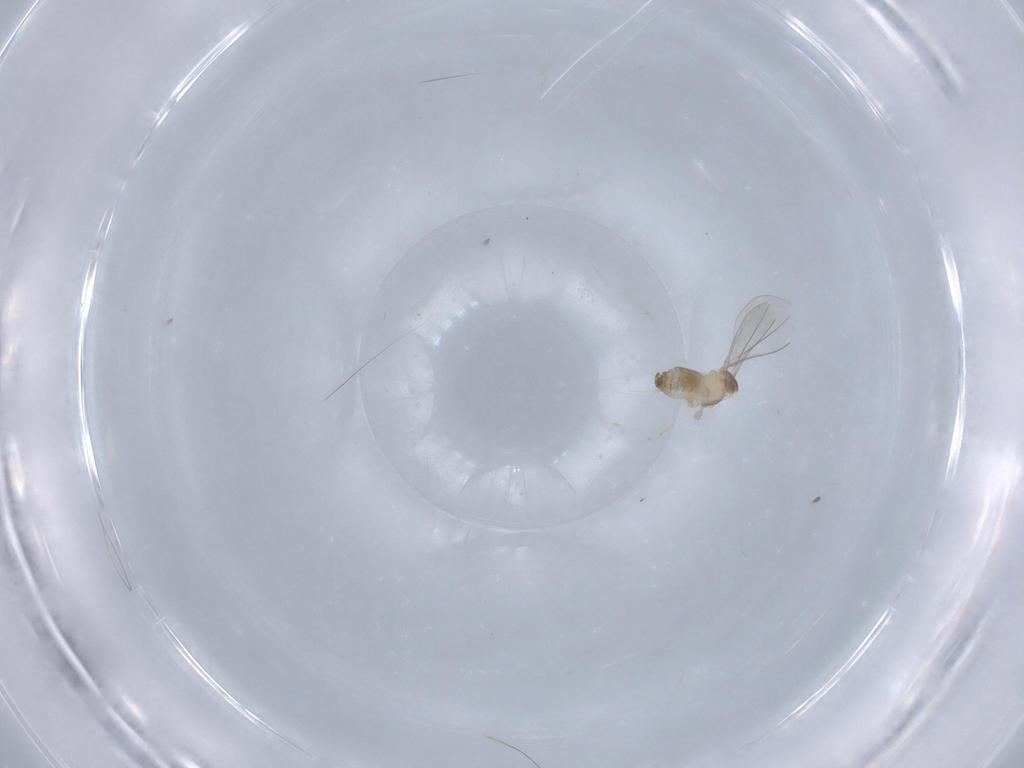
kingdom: Animalia
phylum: Arthropoda
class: Insecta
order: Diptera
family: Cecidomyiidae
